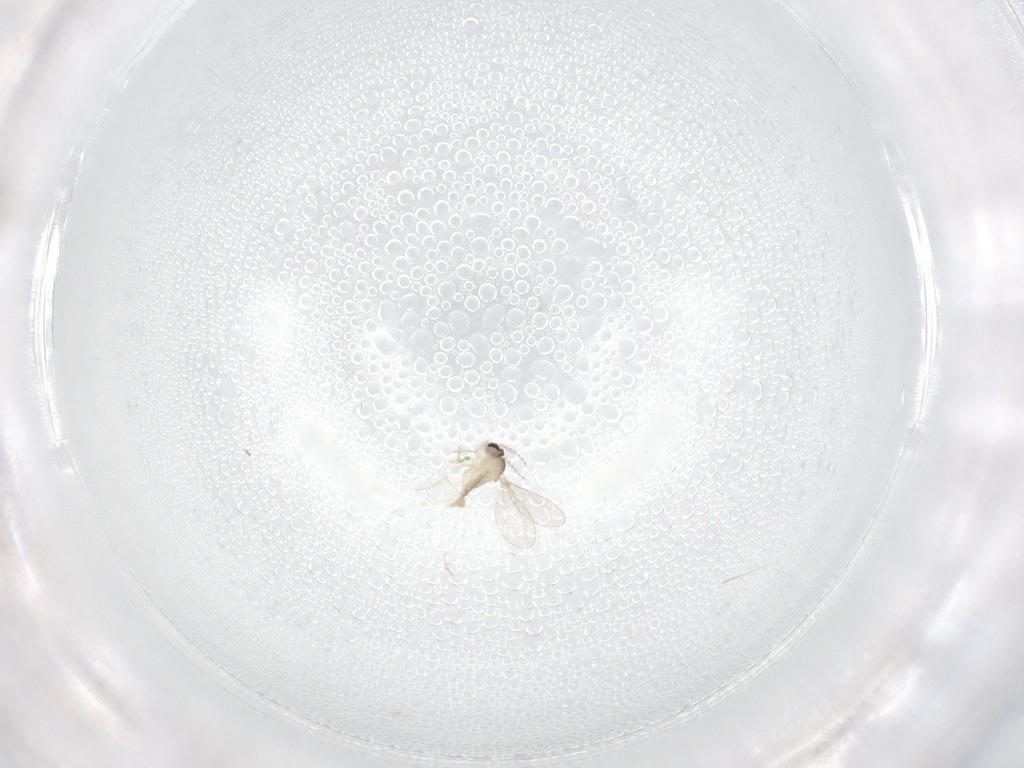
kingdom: Animalia
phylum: Arthropoda
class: Insecta
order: Diptera
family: Cecidomyiidae
